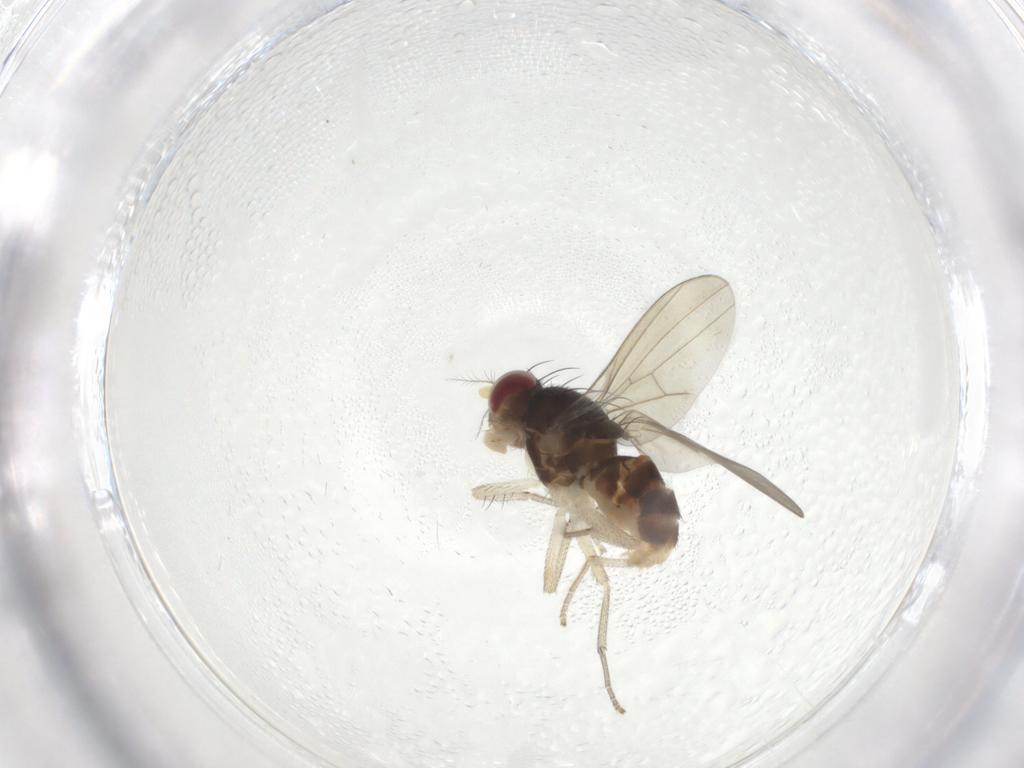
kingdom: Animalia
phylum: Arthropoda
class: Insecta
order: Diptera
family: Lauxaniidae
